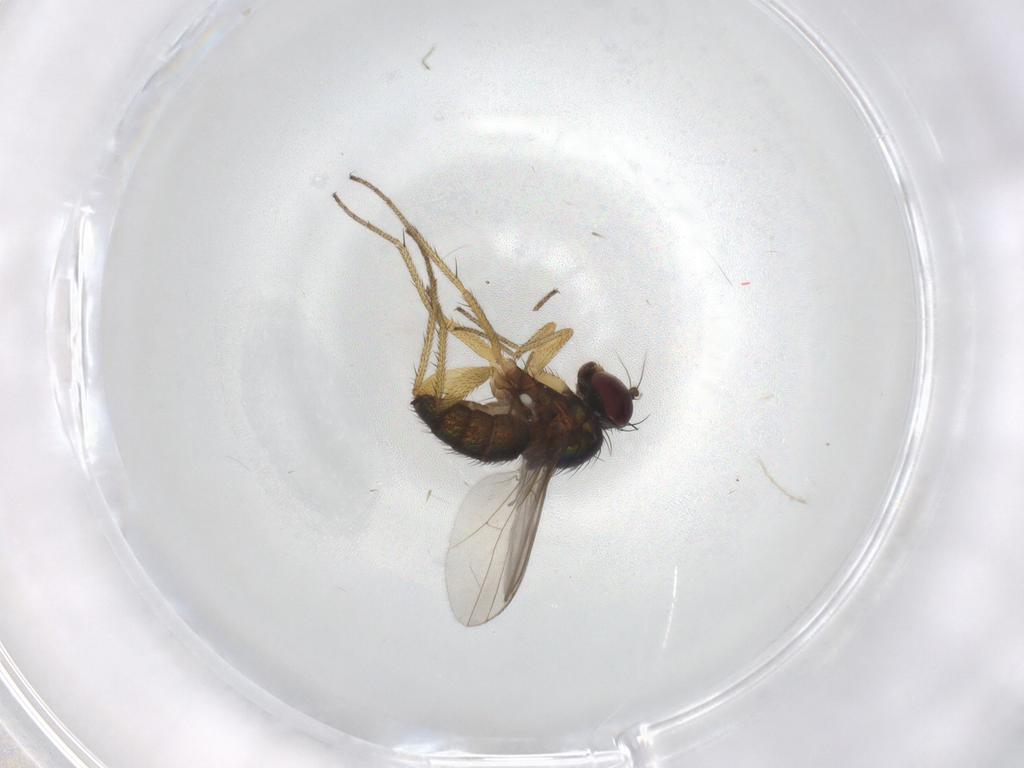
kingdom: Animalia
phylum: Arthropoda
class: Insecta
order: Diptera
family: Dolichopodidae
